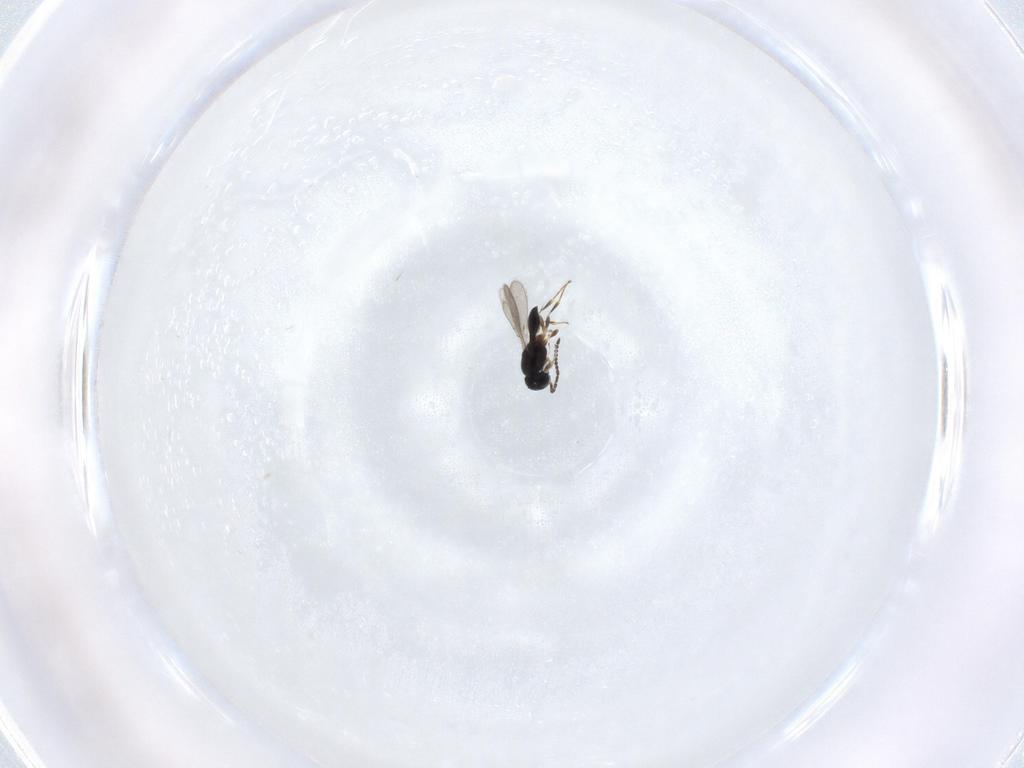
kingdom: Animalia
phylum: Arthropoda
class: Insecta
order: Hymenoptera
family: Scelionidae
